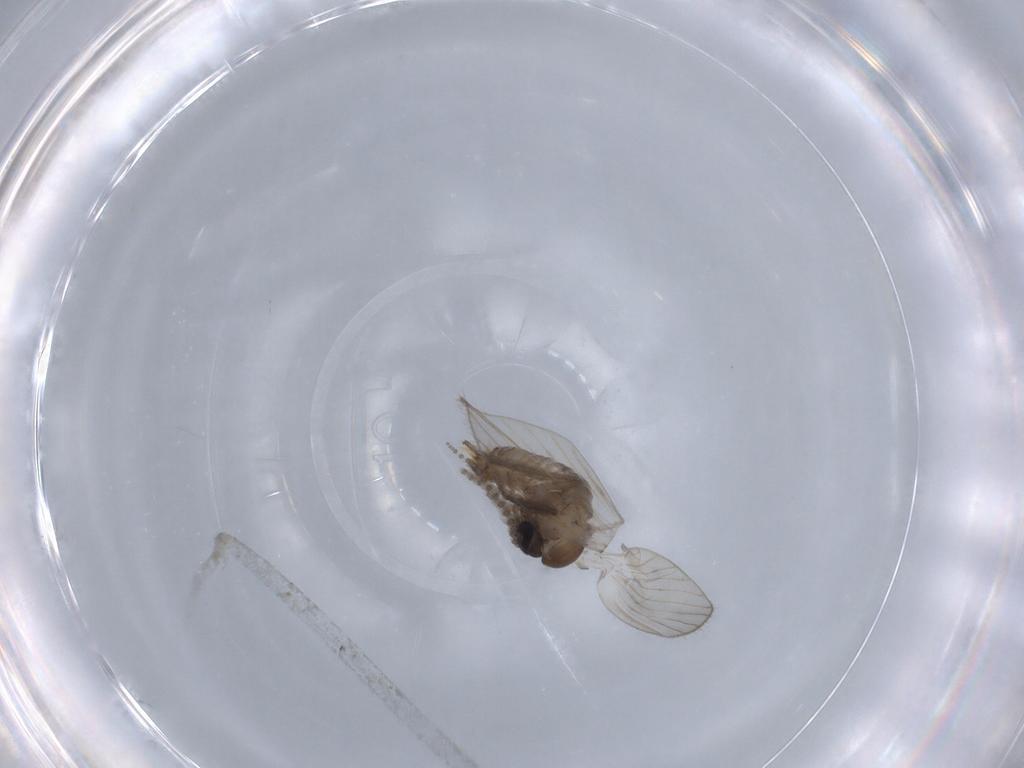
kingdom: Animalia
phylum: Arthropoda
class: Insecta
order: Diptera
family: Psychodidae
